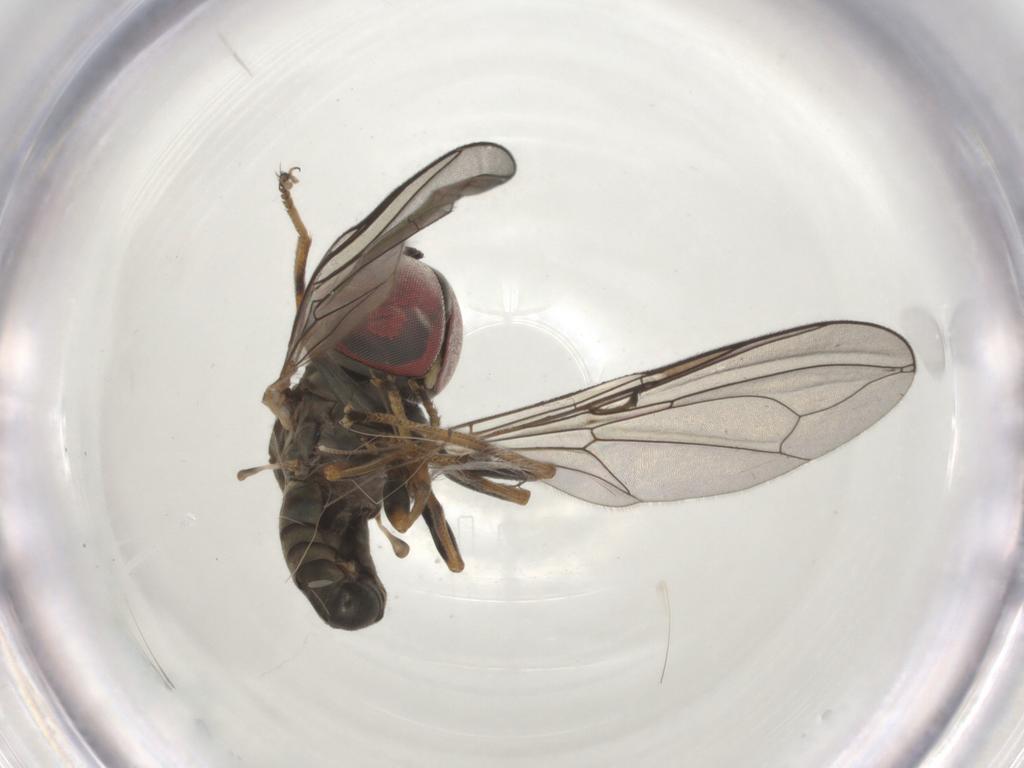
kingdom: Animalia
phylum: Arthropoda
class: Insecta
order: Diptera
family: Pipunculidae
